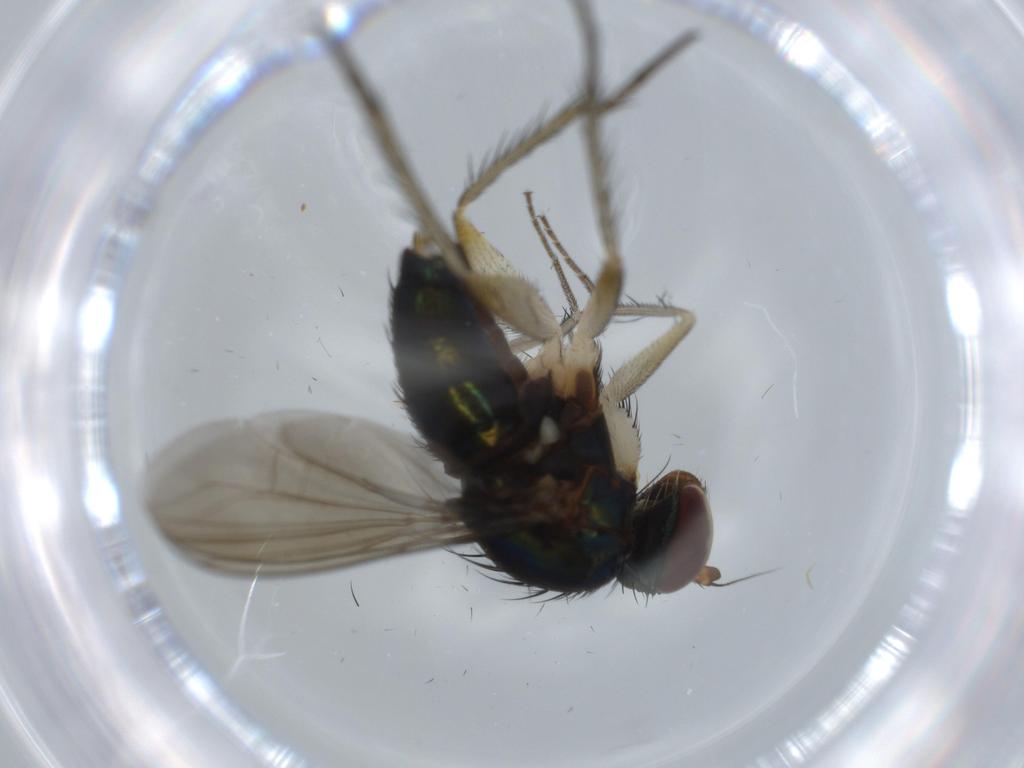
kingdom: Animalia
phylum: Arthropoda
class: Insecta
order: Diptera
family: Dolichopodidae
